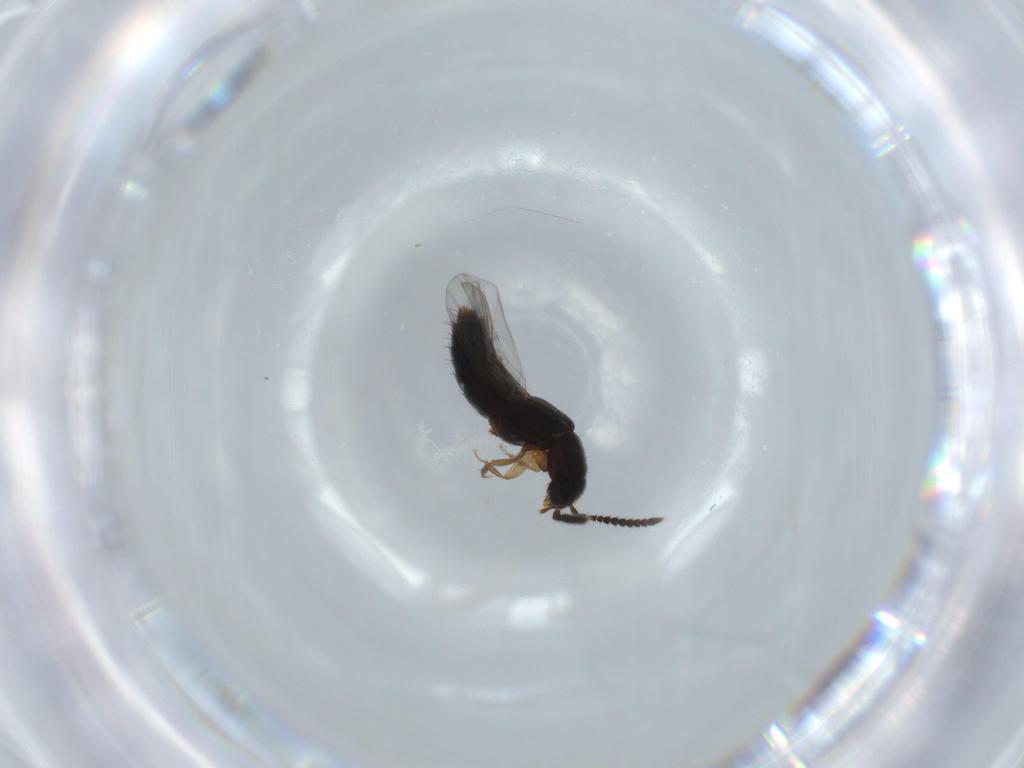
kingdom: Animalia
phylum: Arthropoda
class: Insecta
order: Coleoptera
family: Staphylinidae
